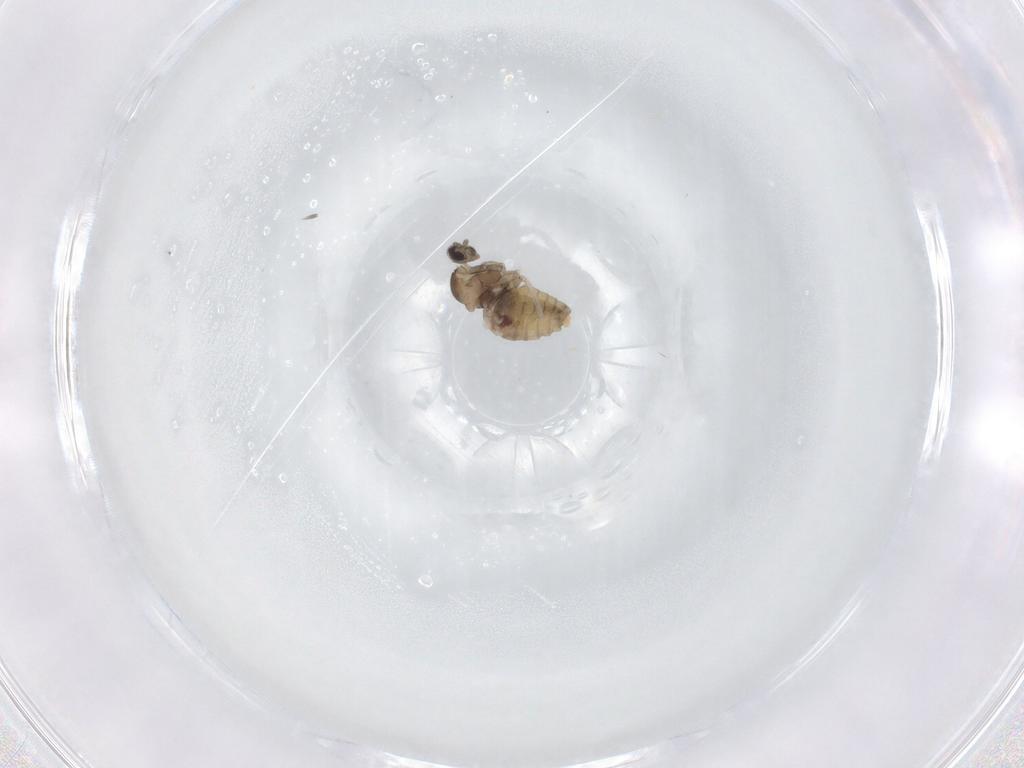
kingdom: Animalia
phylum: Arthropoda
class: Insecta
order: Diptera
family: Cecidomyiidae
